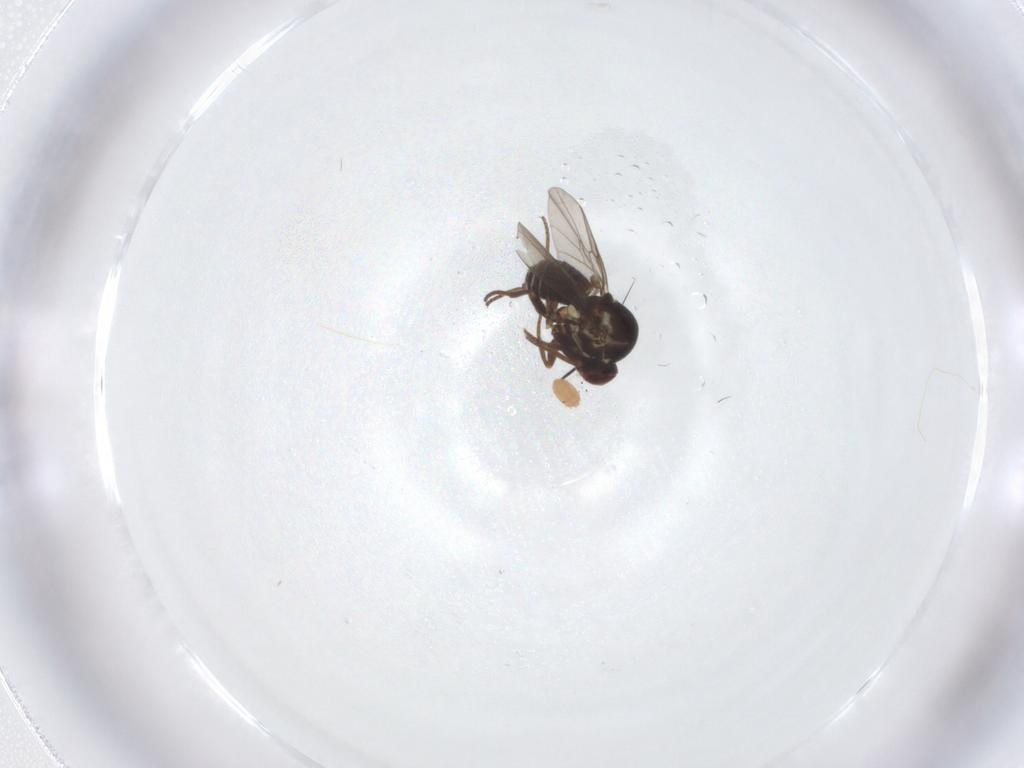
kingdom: Animalia
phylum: Arthropoda
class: Insecta
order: Diptera
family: Mythicomyiidae
